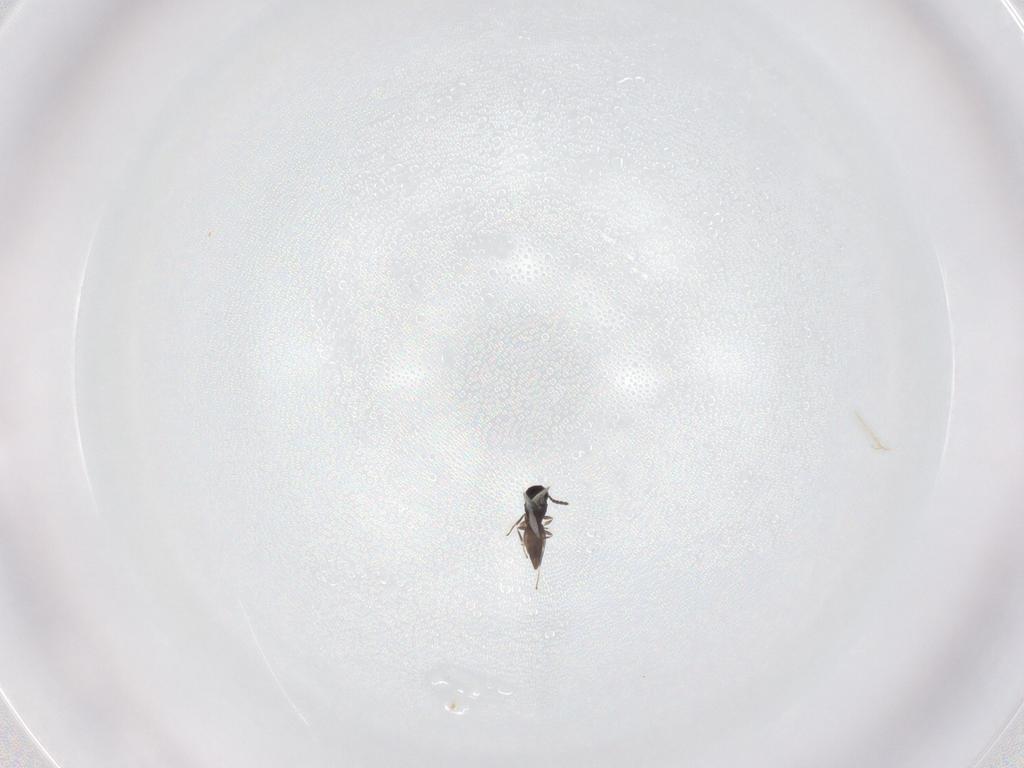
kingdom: Animalia
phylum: Arthropoda
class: Insecta
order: Hymenoptera
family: Scelionidae
